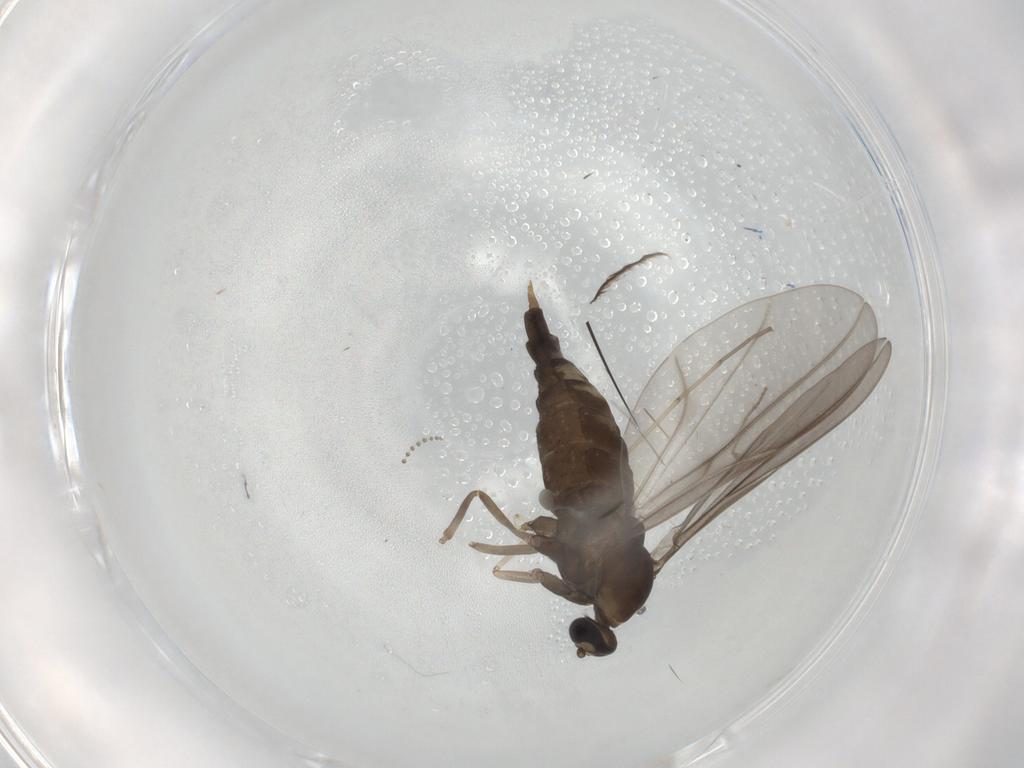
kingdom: Animalia
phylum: Arthropoda
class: Insecta
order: Diptera
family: Cecidomyiidae
